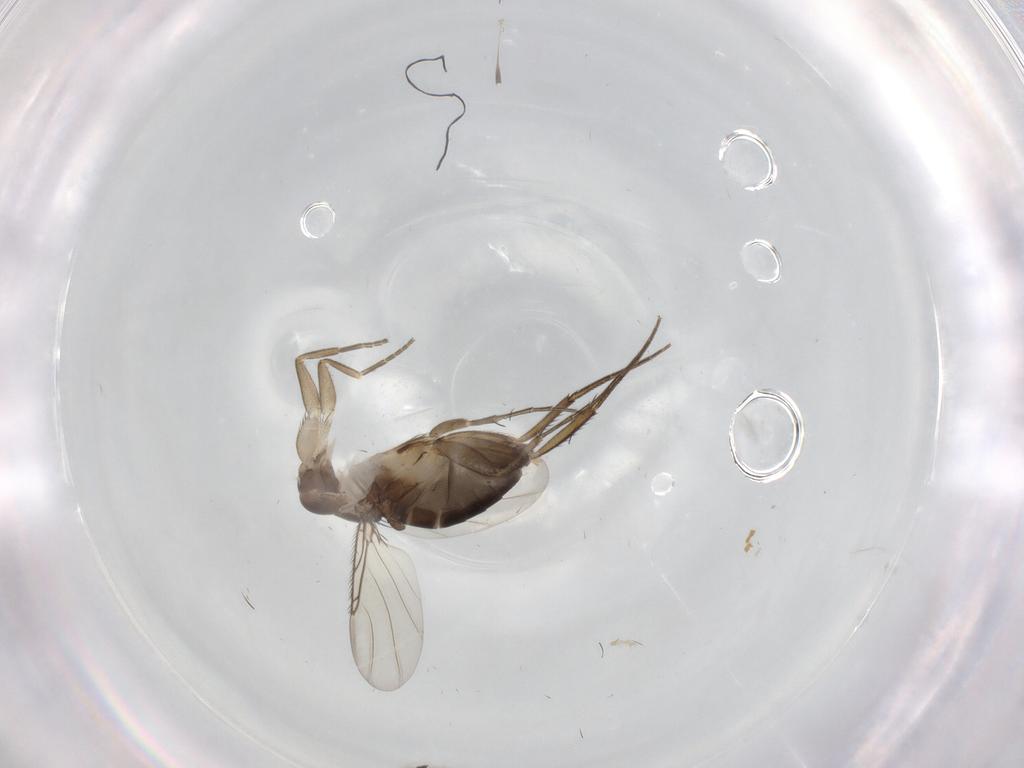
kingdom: Animalia
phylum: Arthropoda
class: Insecta
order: Diptera
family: Phoridae
